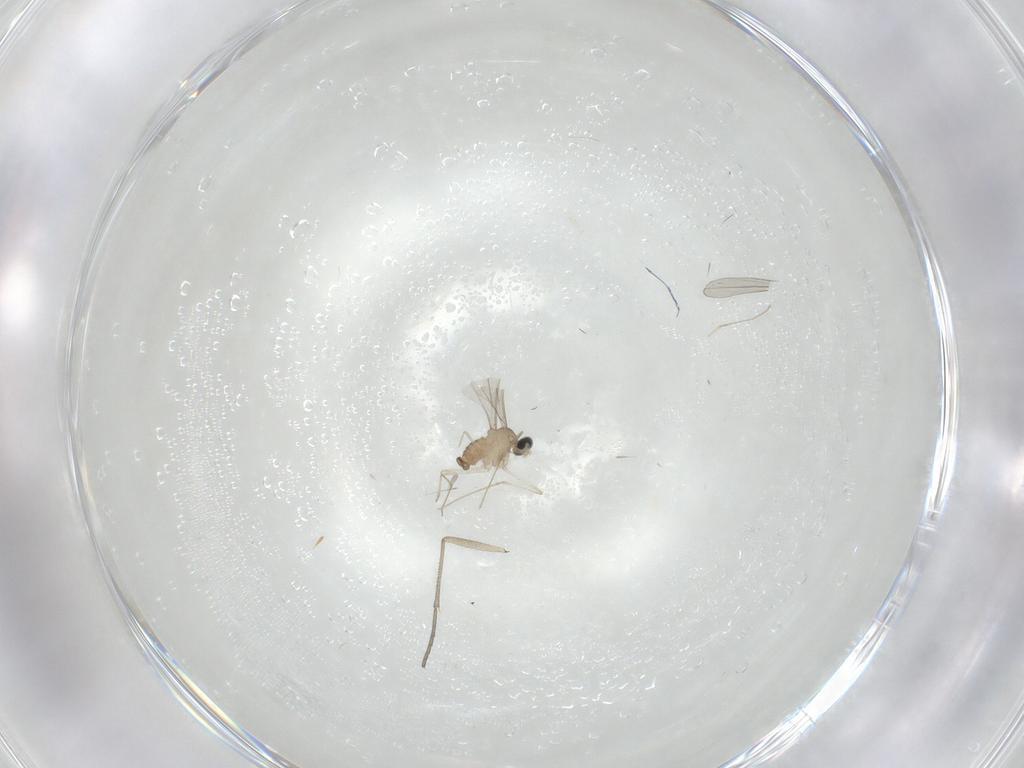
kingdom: Animalia
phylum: Arthropoda
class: Insecta
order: Diptera
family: Cecidomyiidae
